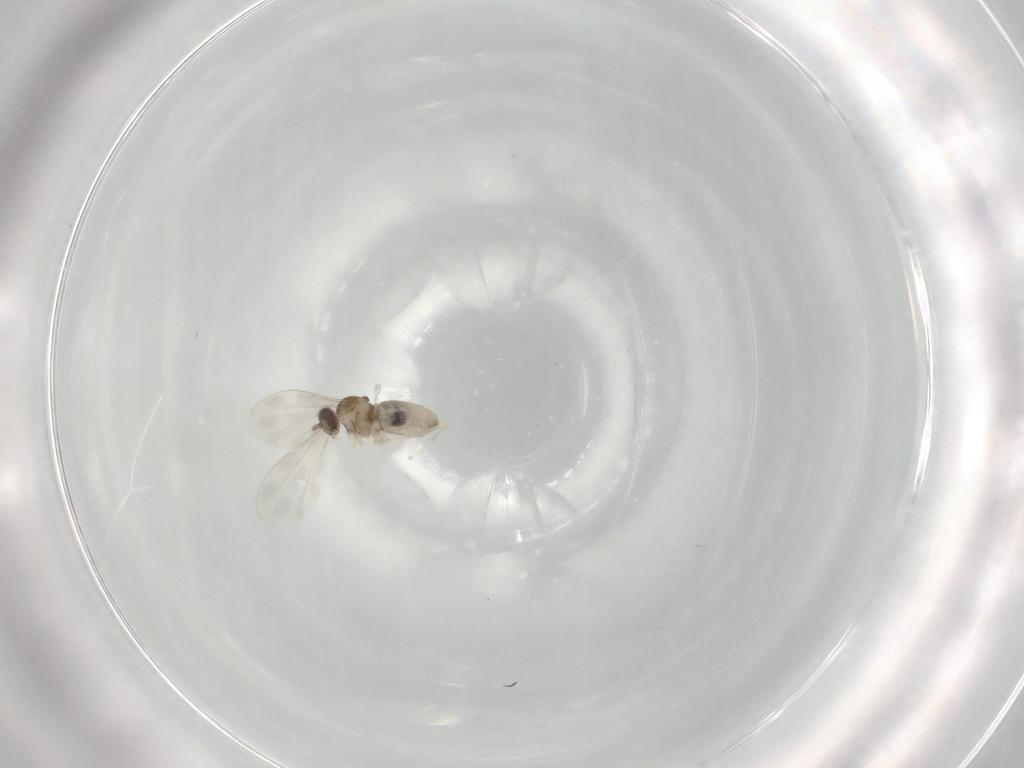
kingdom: Animalia
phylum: Arthropoda
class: Insecta
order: Diptera
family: Cecidomyiidae
